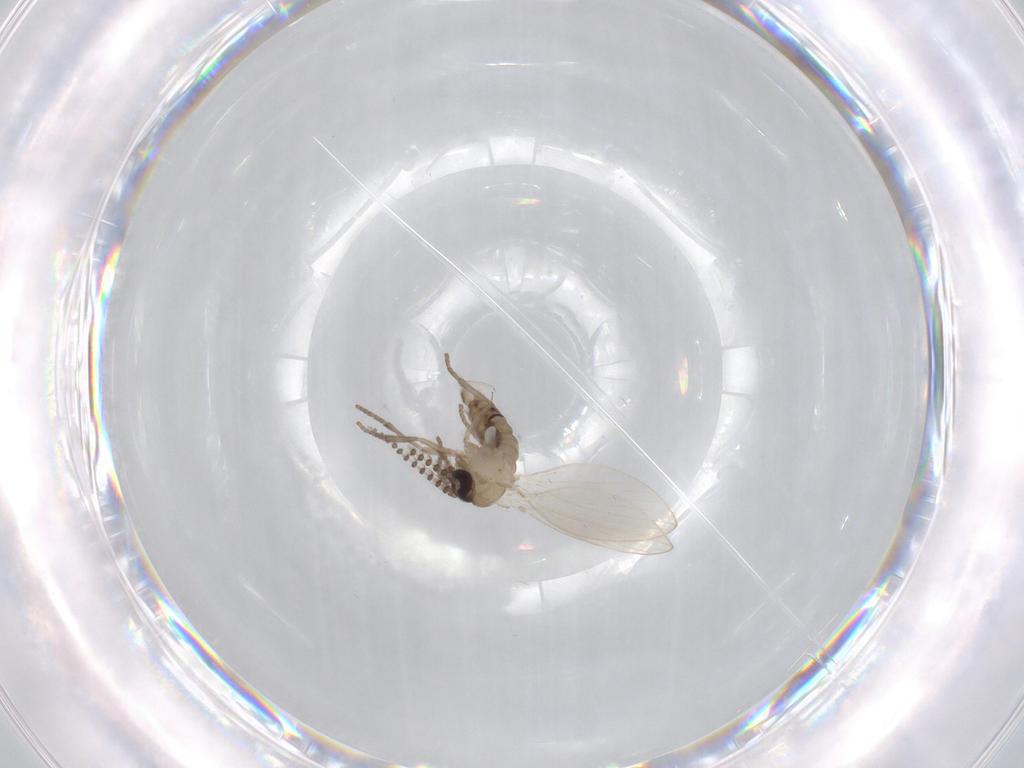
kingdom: Animalia
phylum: Arthropoda
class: Insecta
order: Diptera
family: Psychodidae
